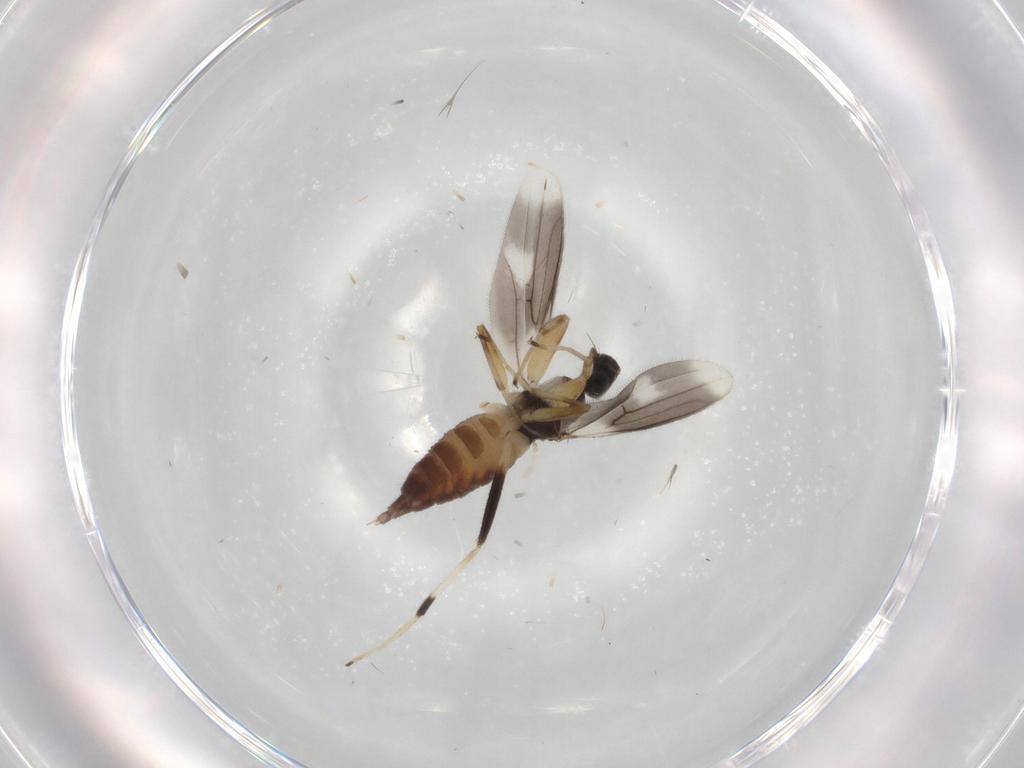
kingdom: Animalia
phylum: Arthropoda
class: Insecta
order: Diptera
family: Hybotidae
